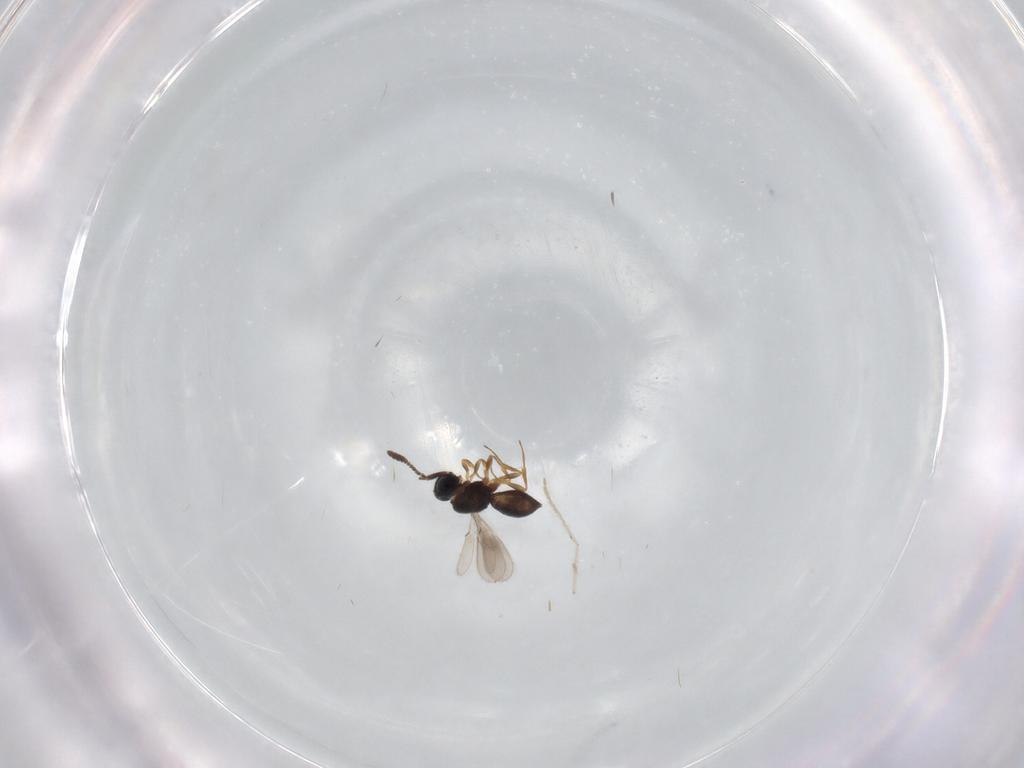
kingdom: Animalia
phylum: Arthropoda
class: Insecta
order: Hymenoptera
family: Scelionidae
